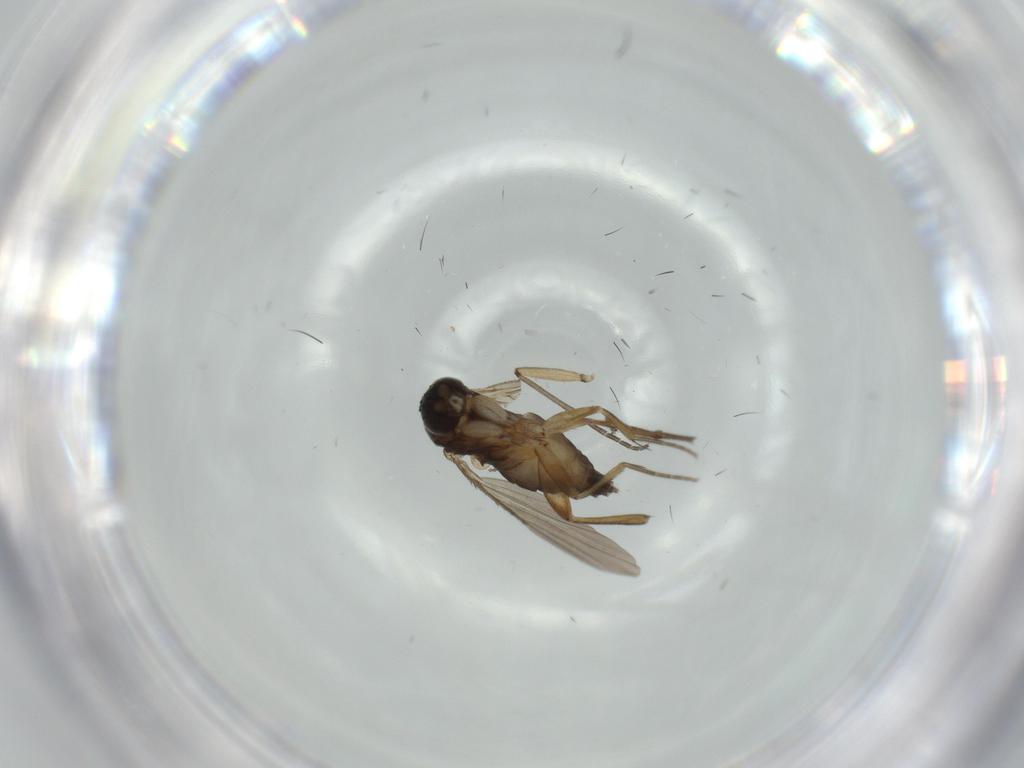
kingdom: Animalia
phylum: Arthropoda
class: Insecta
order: Diptera
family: Phoridae
